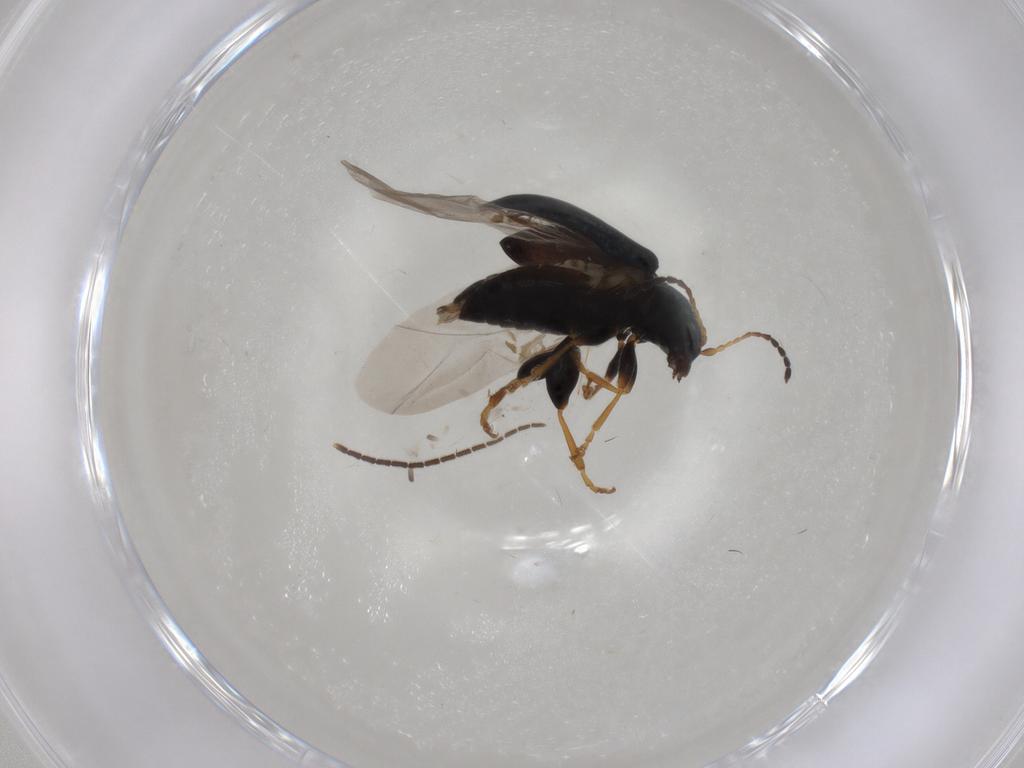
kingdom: Animalia
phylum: Arthropoda
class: Insecta
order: Coleoptera
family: Chrysomelidae
